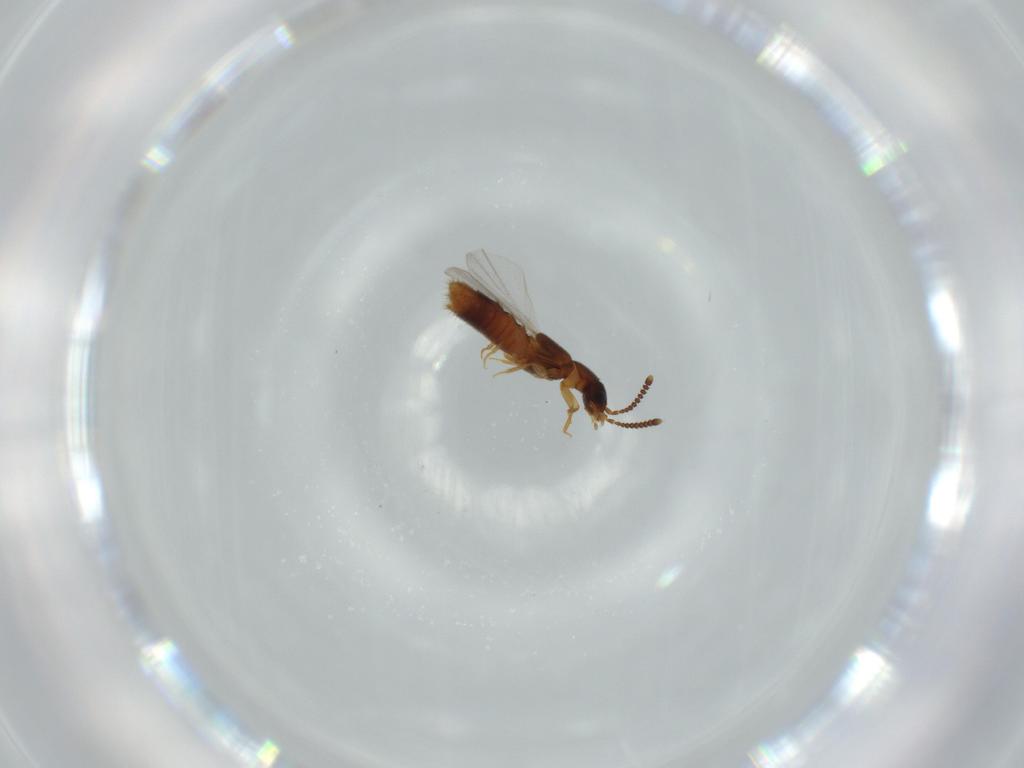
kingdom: Animalia
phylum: Arthropoda
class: Insecta
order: Coleoptera
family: Staphylinidae
